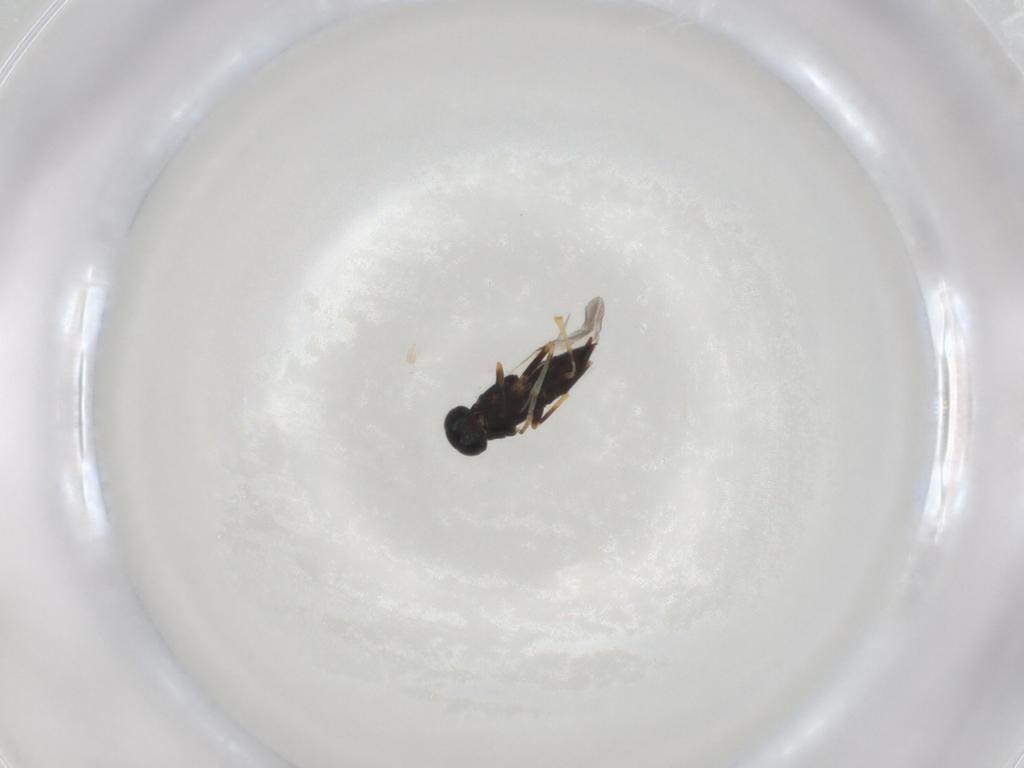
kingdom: Animalia
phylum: Arthropoda
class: Insecta
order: Hymenoptera
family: Encyrtidae
